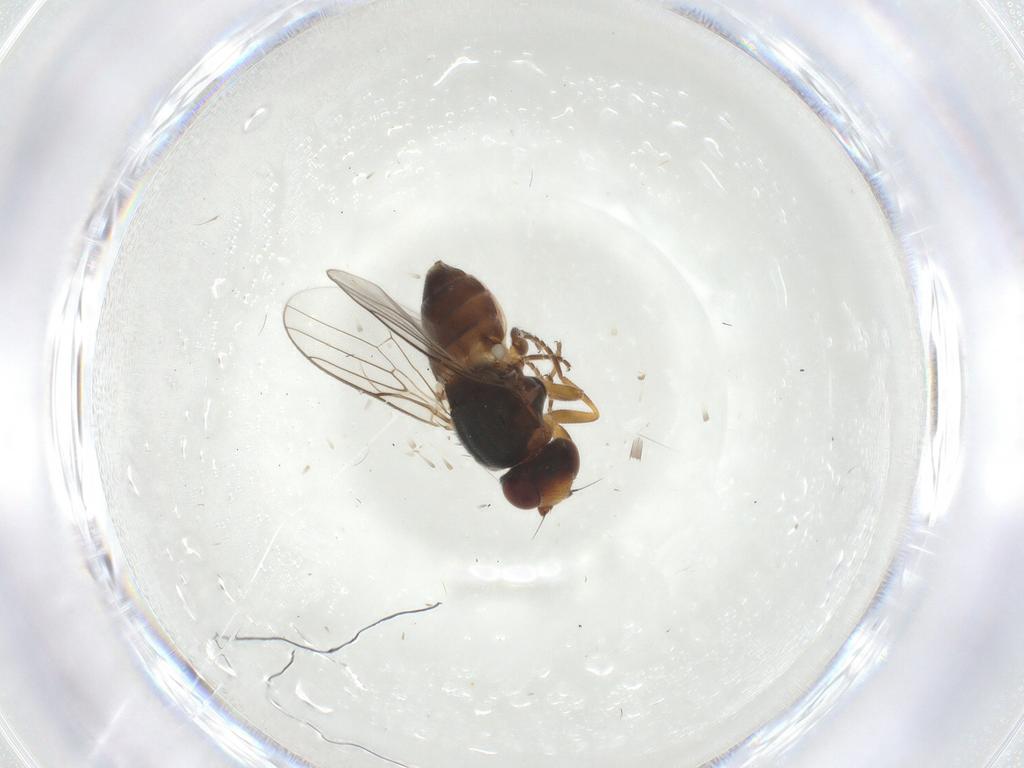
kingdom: Animalia
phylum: Arthropoda
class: Insecta
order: Diptera
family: Chloropidae
